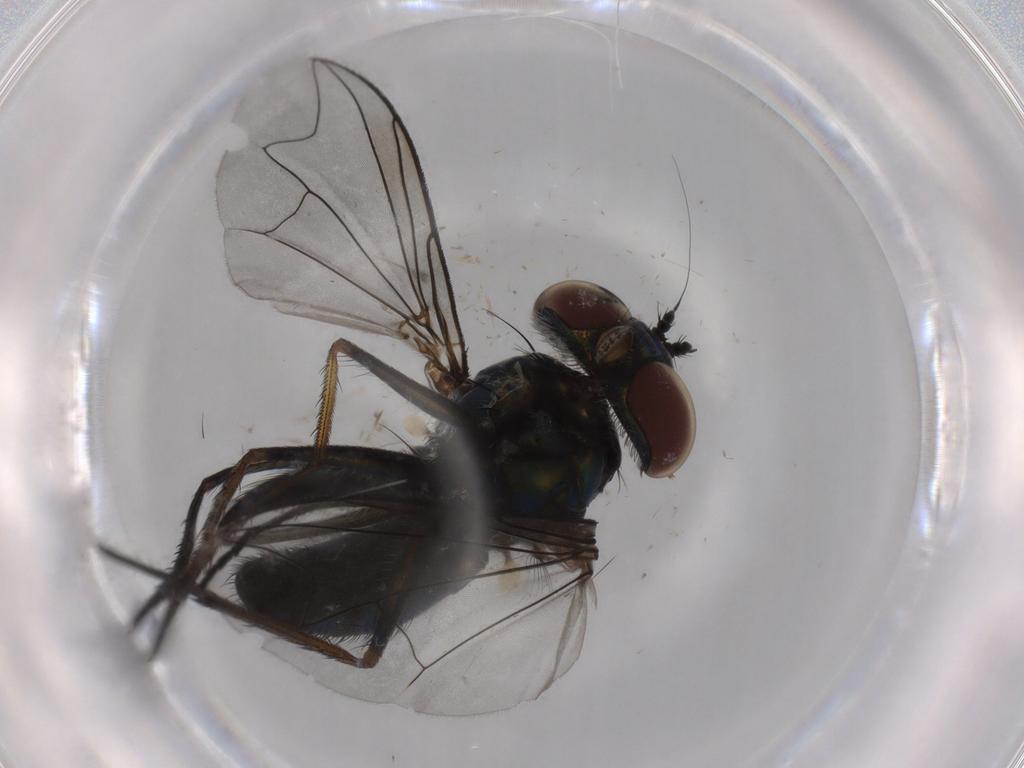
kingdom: Animalia
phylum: Arthropoda
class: Insecta
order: Diptera
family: Dolichopodidae
